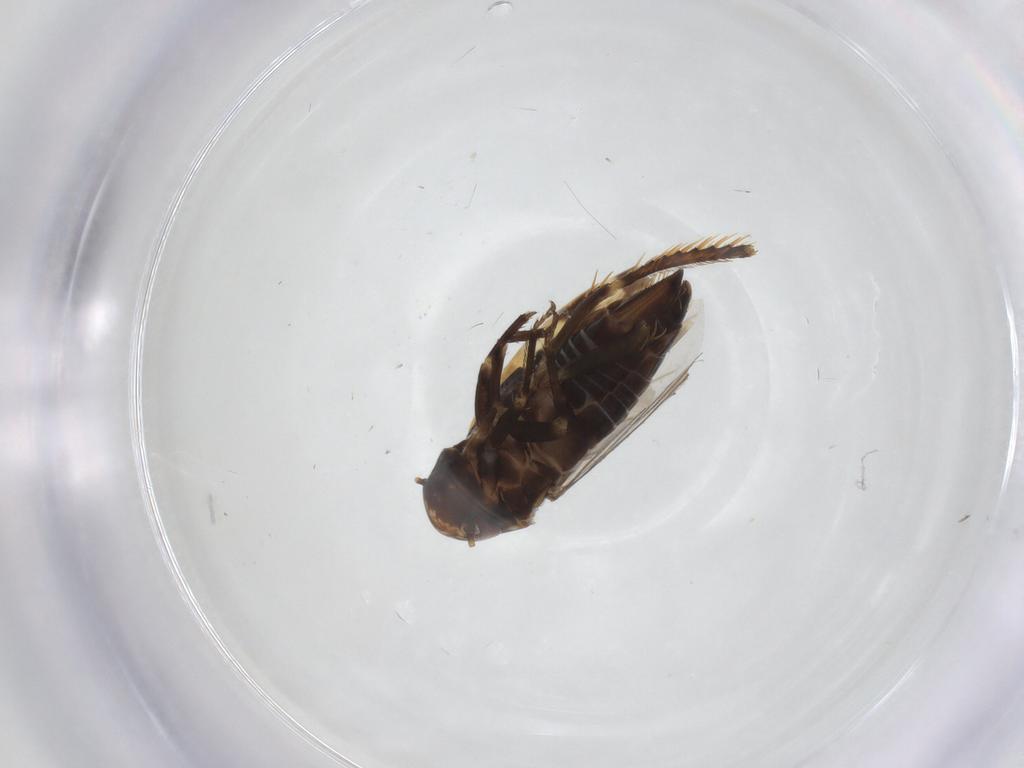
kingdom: Animalia
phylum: Arthropoda
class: Insecta
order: Hemiptera
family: Cicadellidae
